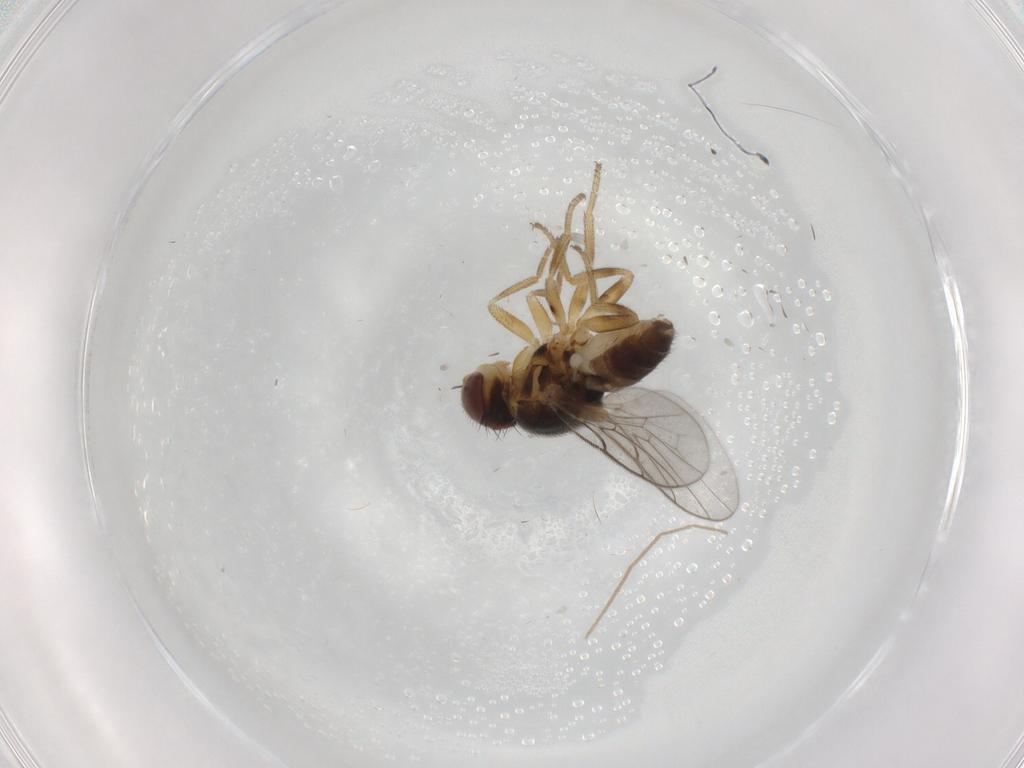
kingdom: Animalia
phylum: Arthropoda
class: Insecta
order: Diptera
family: Chloropidae
